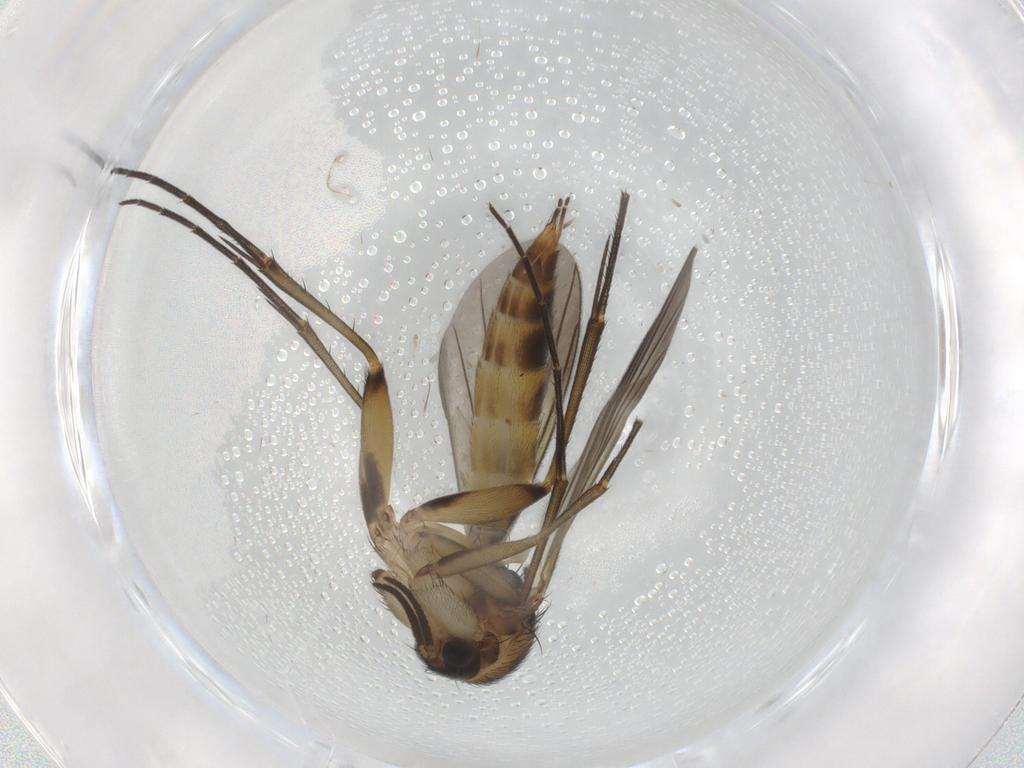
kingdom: Animalia
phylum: Arthropoda
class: Insecta
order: Diptera
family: Mycetophilidae
